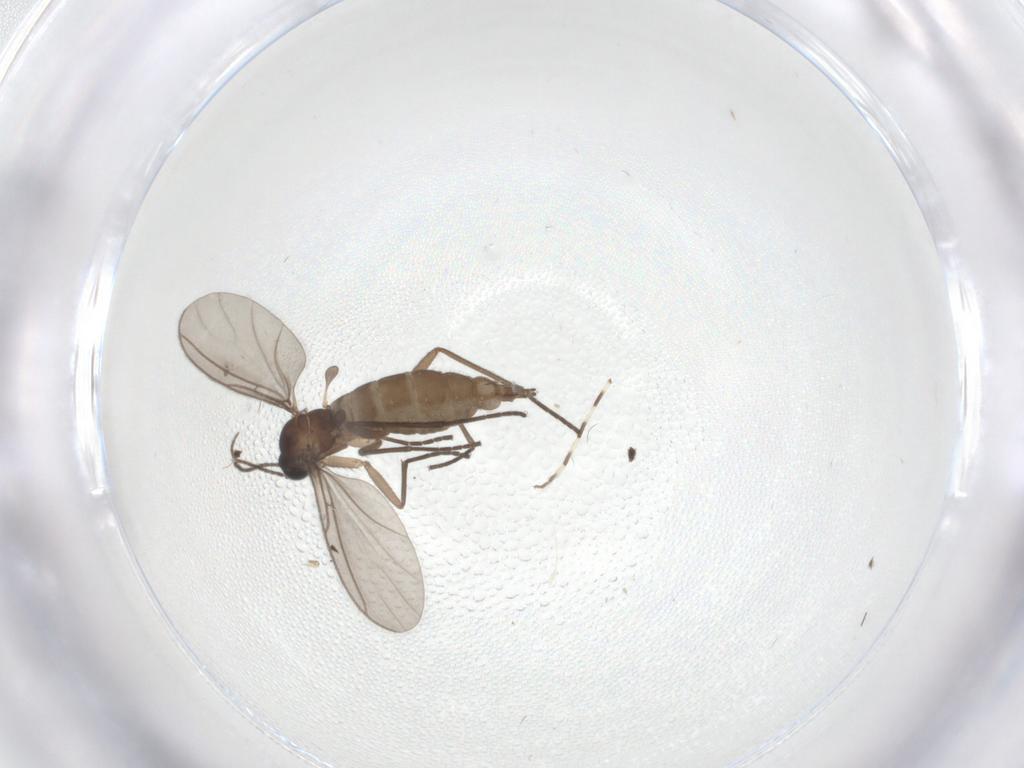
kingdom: Animalia
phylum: Arthropoda
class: Insecta
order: Diptera
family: Sciaridae
